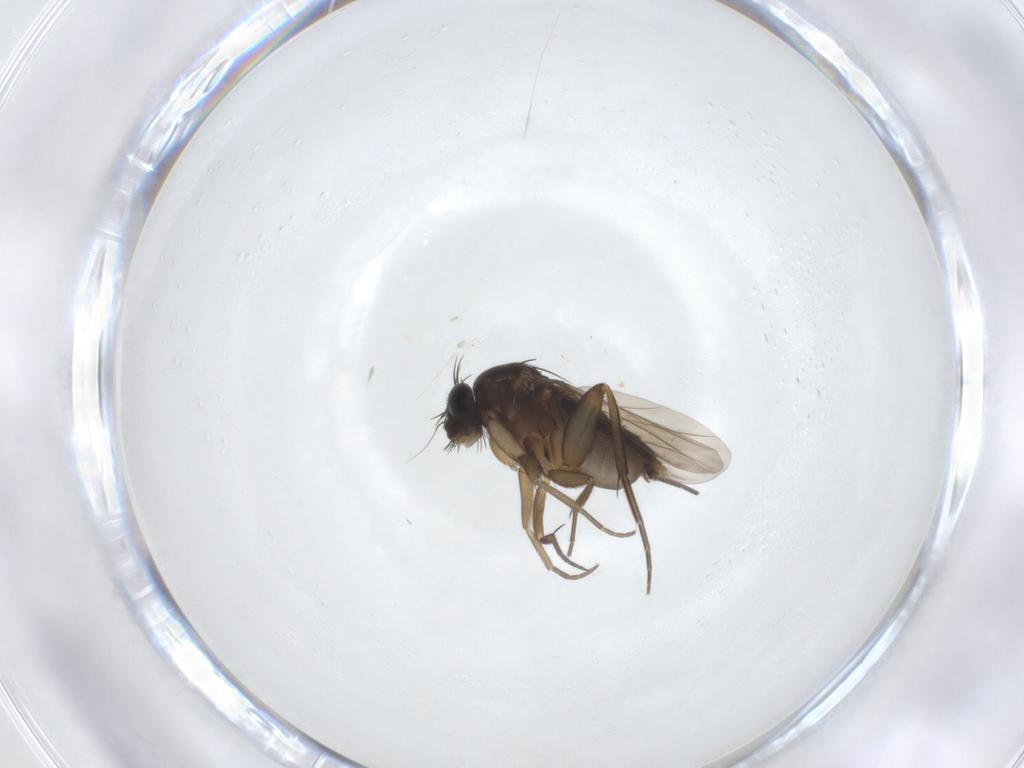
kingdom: Animalia
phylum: Arthropoda
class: Insecta
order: Diptera
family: Phoridae
